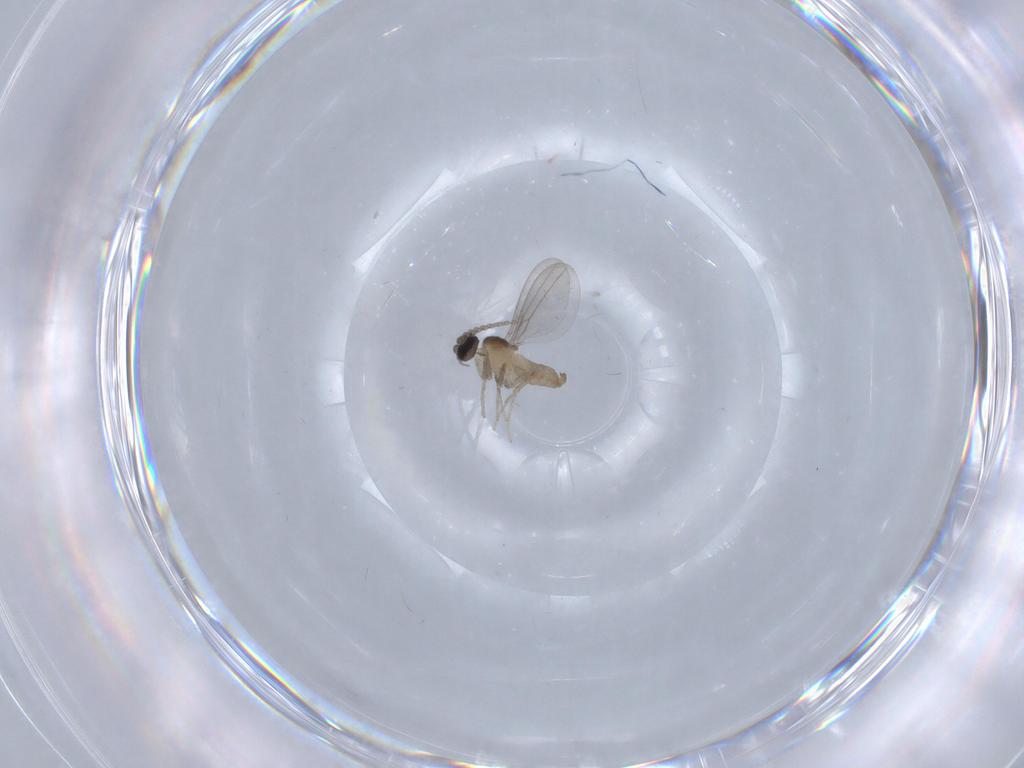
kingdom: Animalia
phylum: Arthropoda
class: Insecta
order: Diptera
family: Cecidomyiidae
